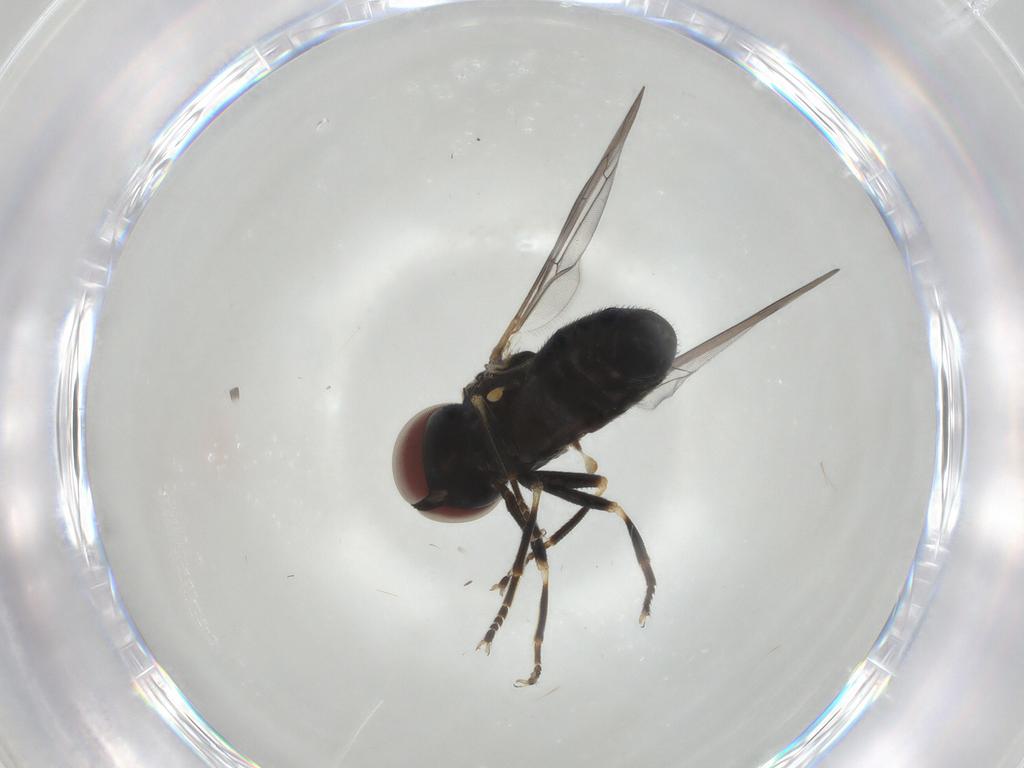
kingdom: Animalia
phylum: Arthropoda
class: Insecta
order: Diptera
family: Pipunculidae
